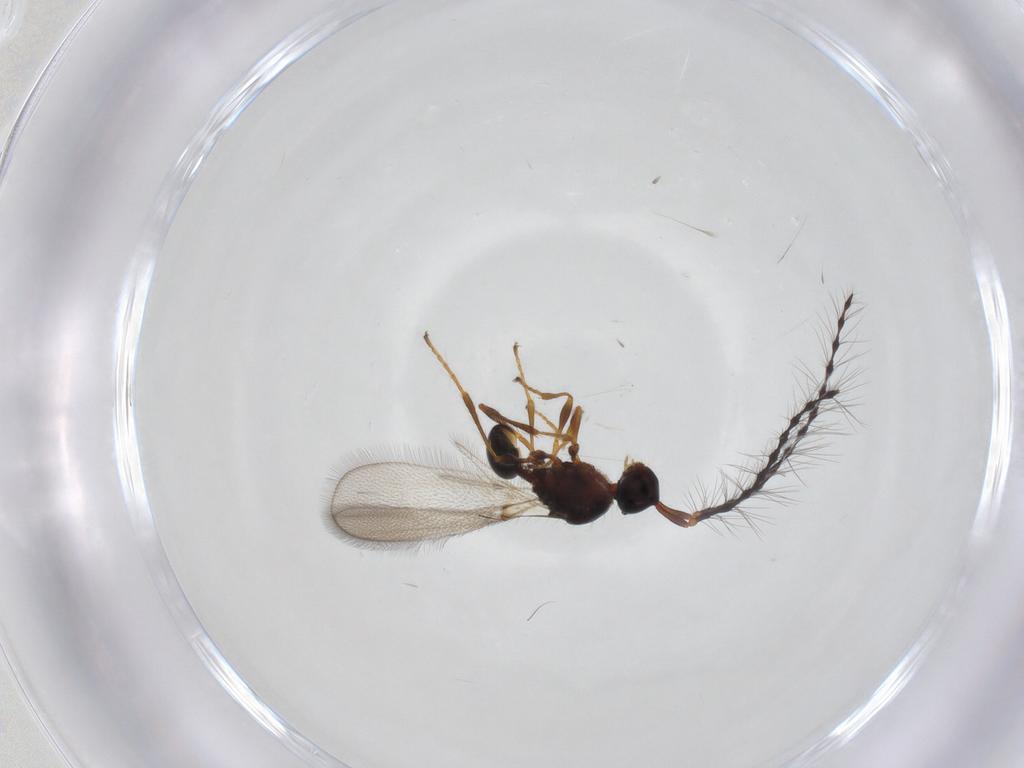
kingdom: Animalia
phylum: Arthropoda
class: Insecta
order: Hymenoptera
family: Diapriidae
